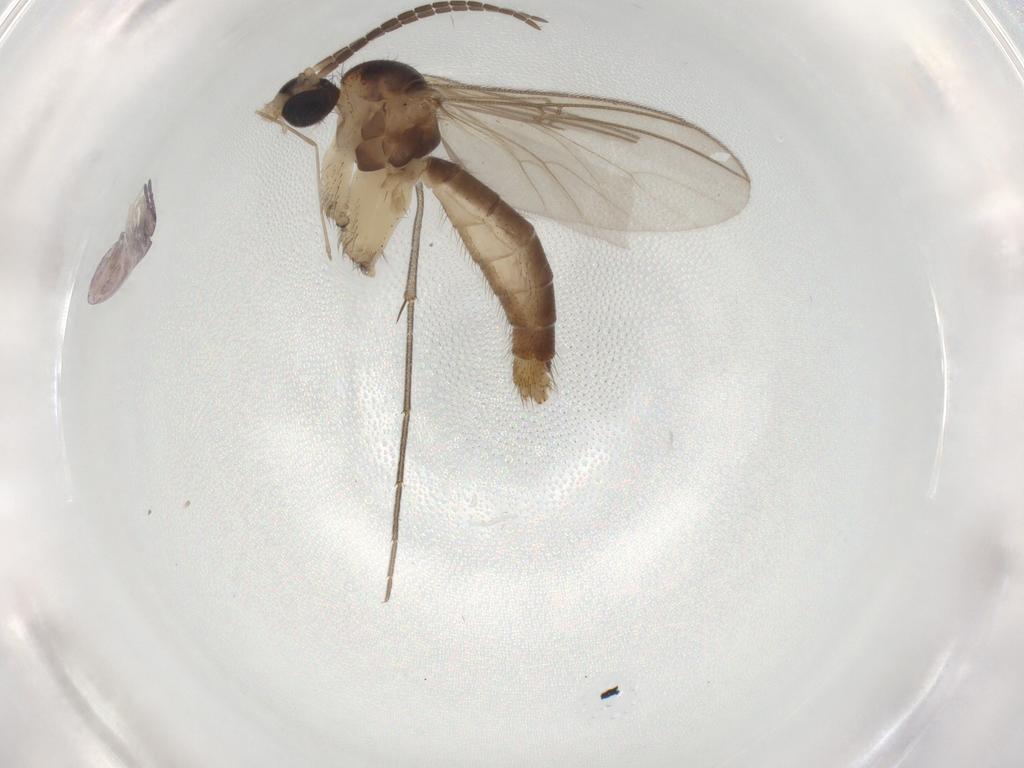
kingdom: Animalia
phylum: Arthropoda
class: Insecta
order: Diptera
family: Mycetophilidae
